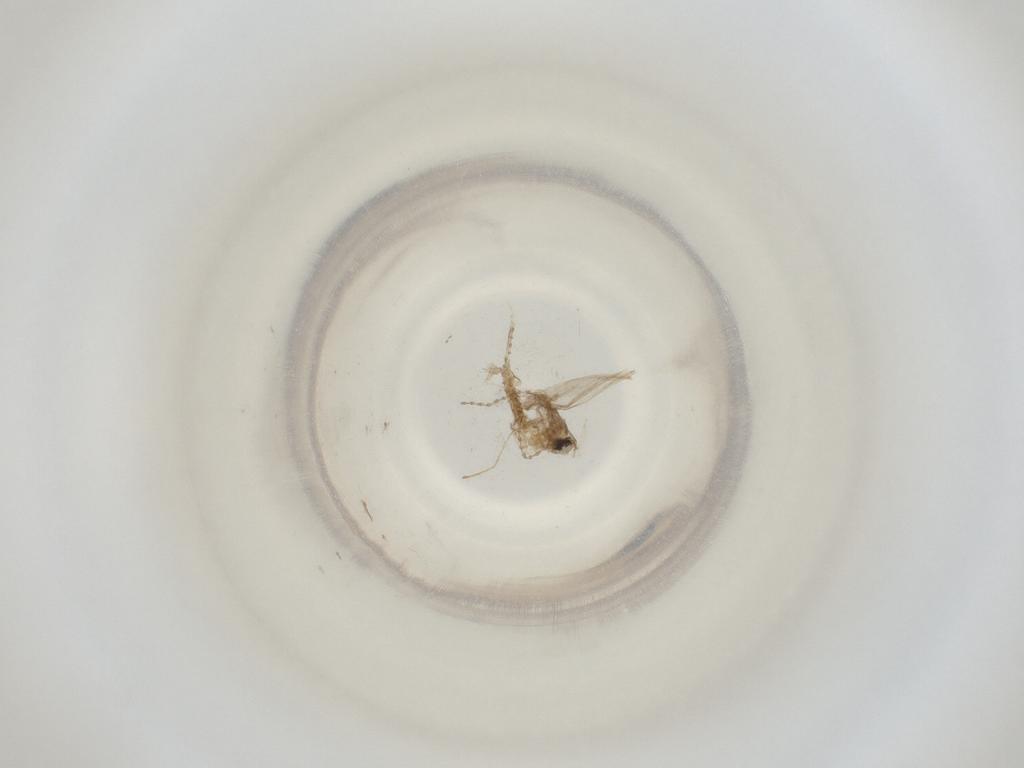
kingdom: Animalia
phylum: Arthropoda
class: Insecta
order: Diptera
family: Cecidomyiidae
